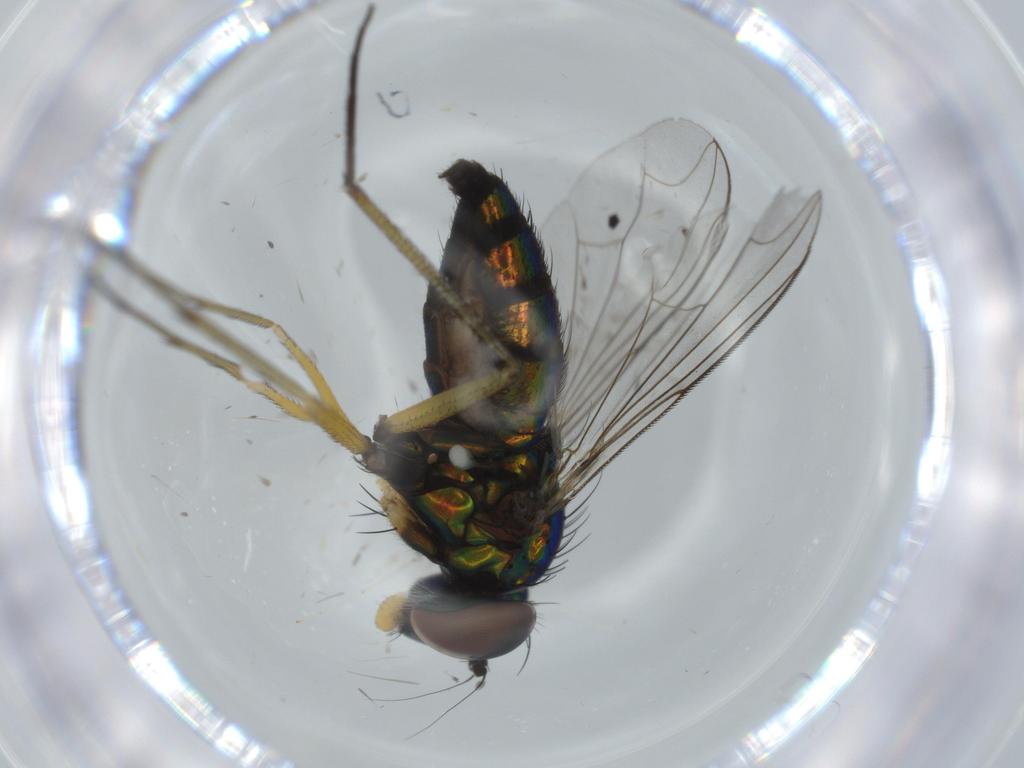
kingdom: Animalia
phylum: Arthropoda
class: Insecta
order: Diptera
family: Dolichopodidae
